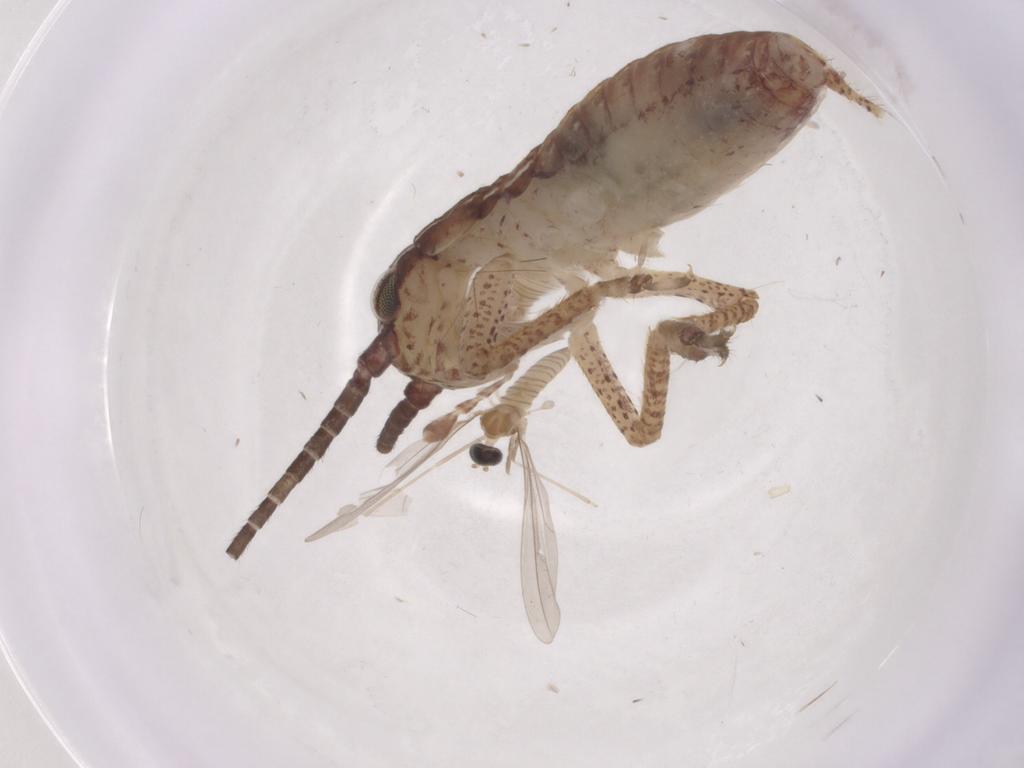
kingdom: Animalia
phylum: Arthropoda
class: Insecta
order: Orthoptera
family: Gryllidae
